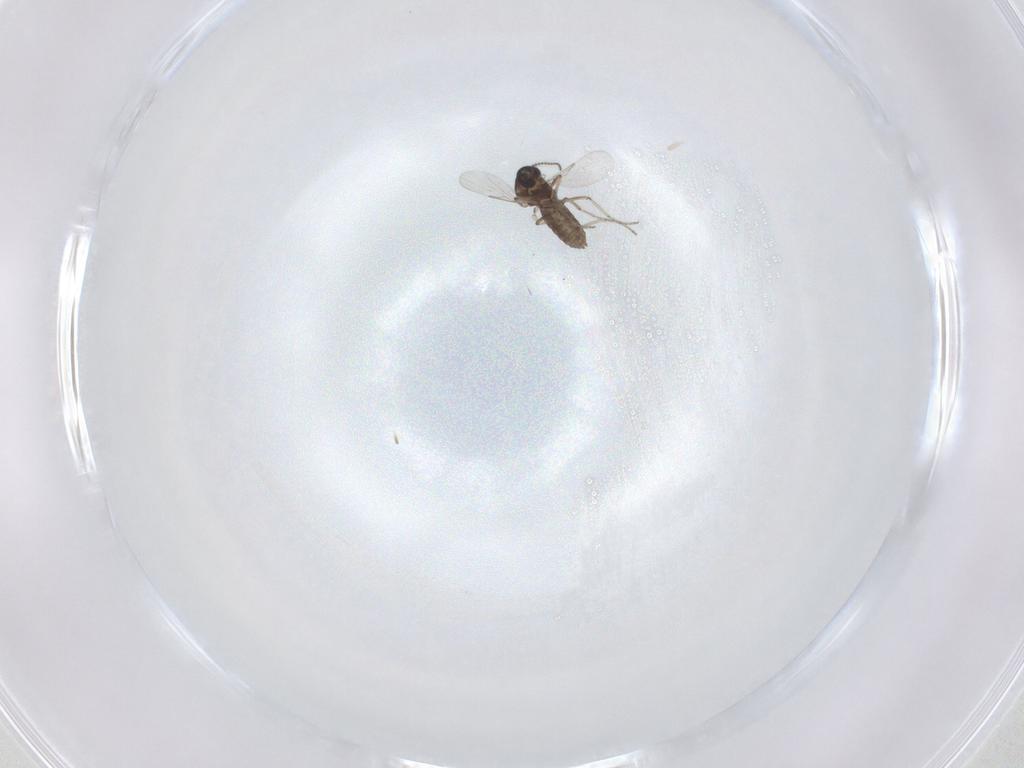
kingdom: Animalia
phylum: Arthropoda
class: Insecta
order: Diptera
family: Ceratopogonidae
